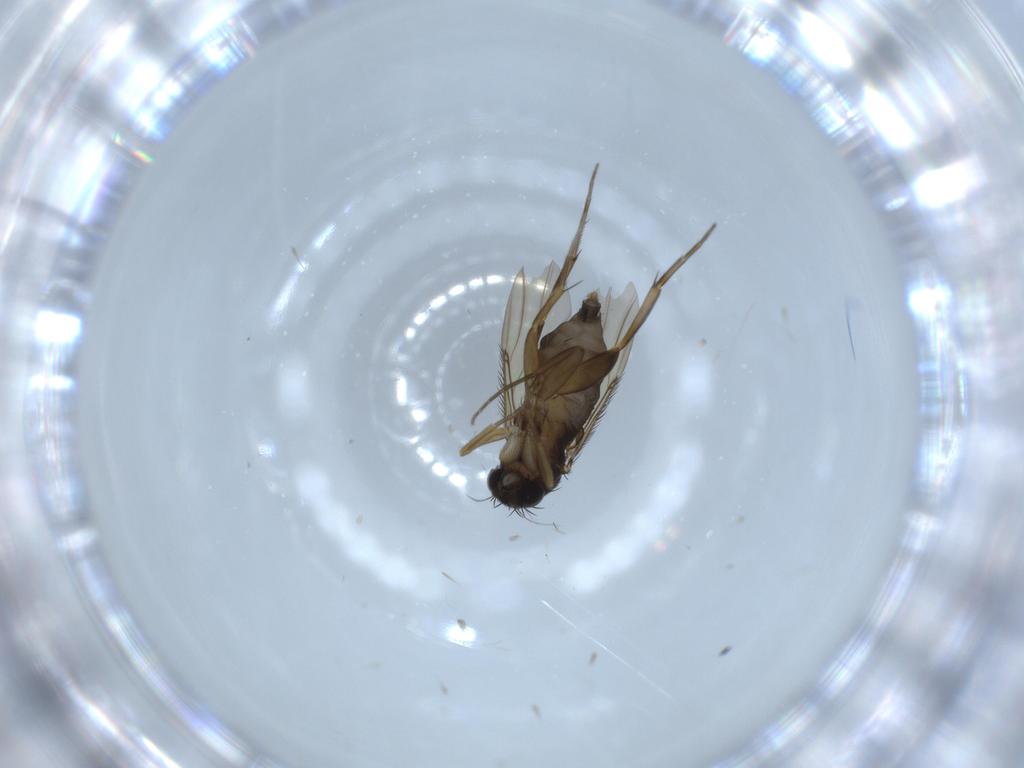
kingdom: Animalia
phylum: Arthropoda
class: Insecta
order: Diptera
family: Phoridae
